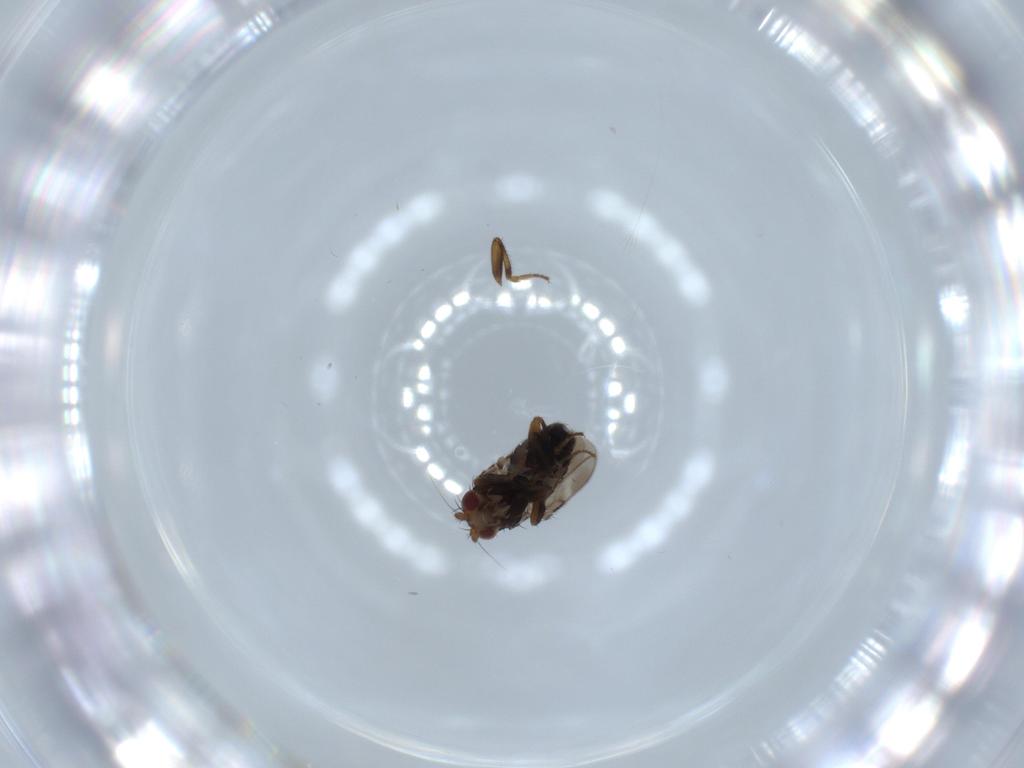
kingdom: Animalia
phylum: Arthropoda
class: Insecta
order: Diptera
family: Sphaeroceridae
